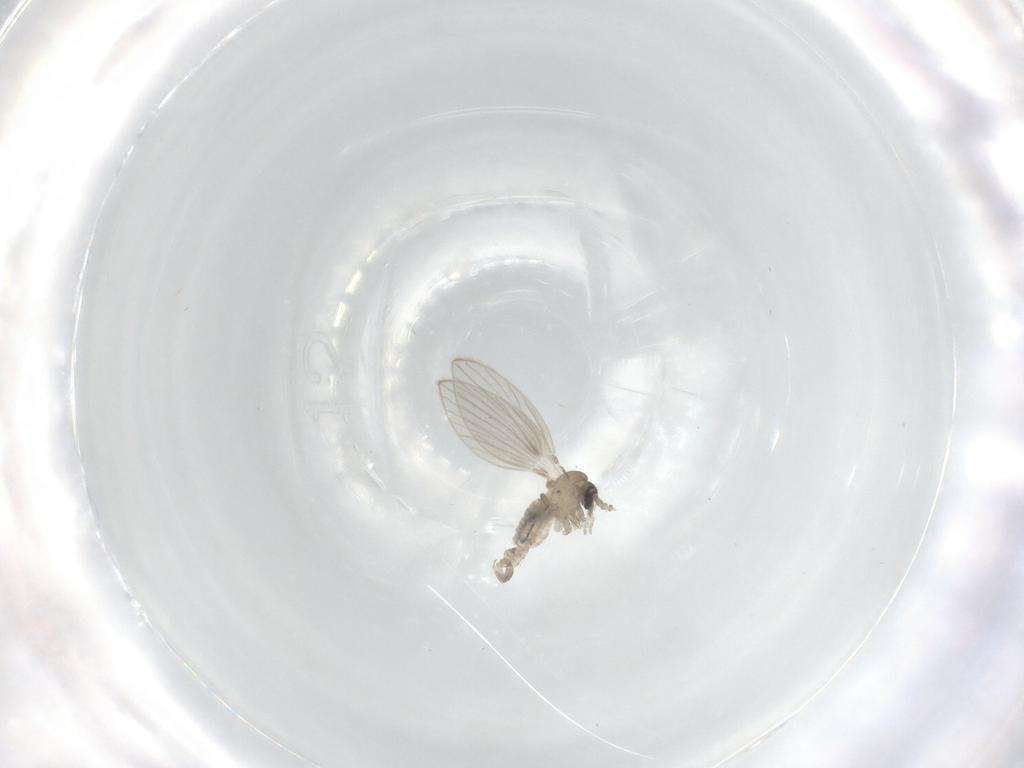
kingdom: Animalia
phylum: Arthropoda
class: Insecta
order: Diptera
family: Psychodidae
